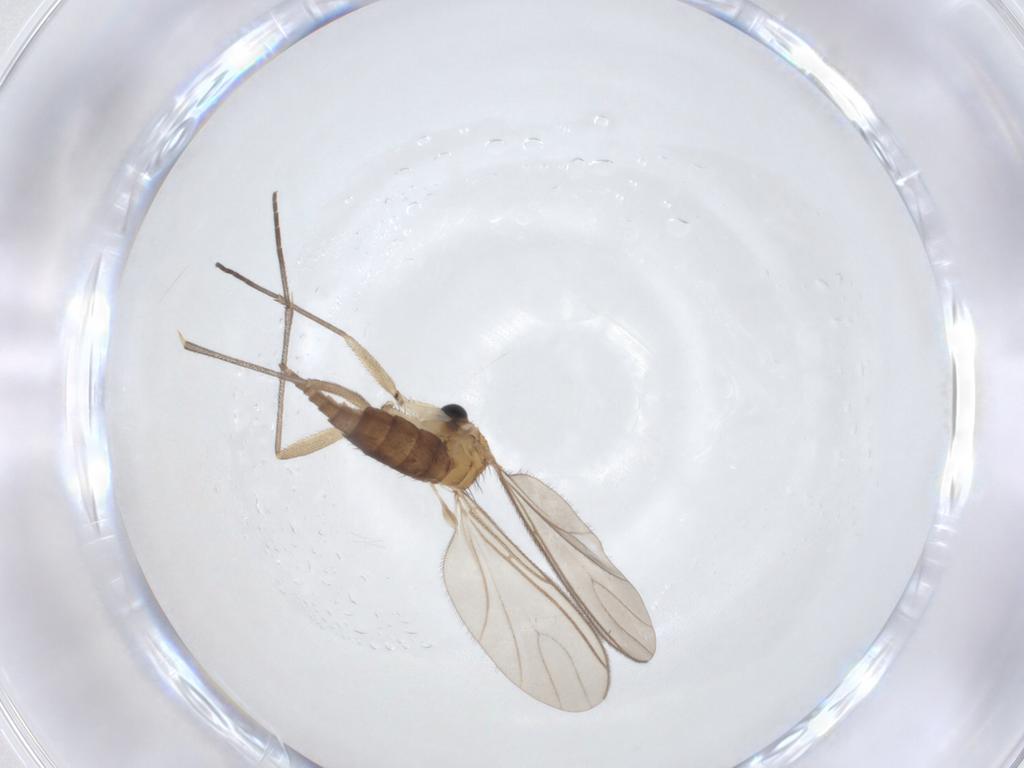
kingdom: Animalia
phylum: Arthropoda
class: Insecta
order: Diptera
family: Sciaridae
